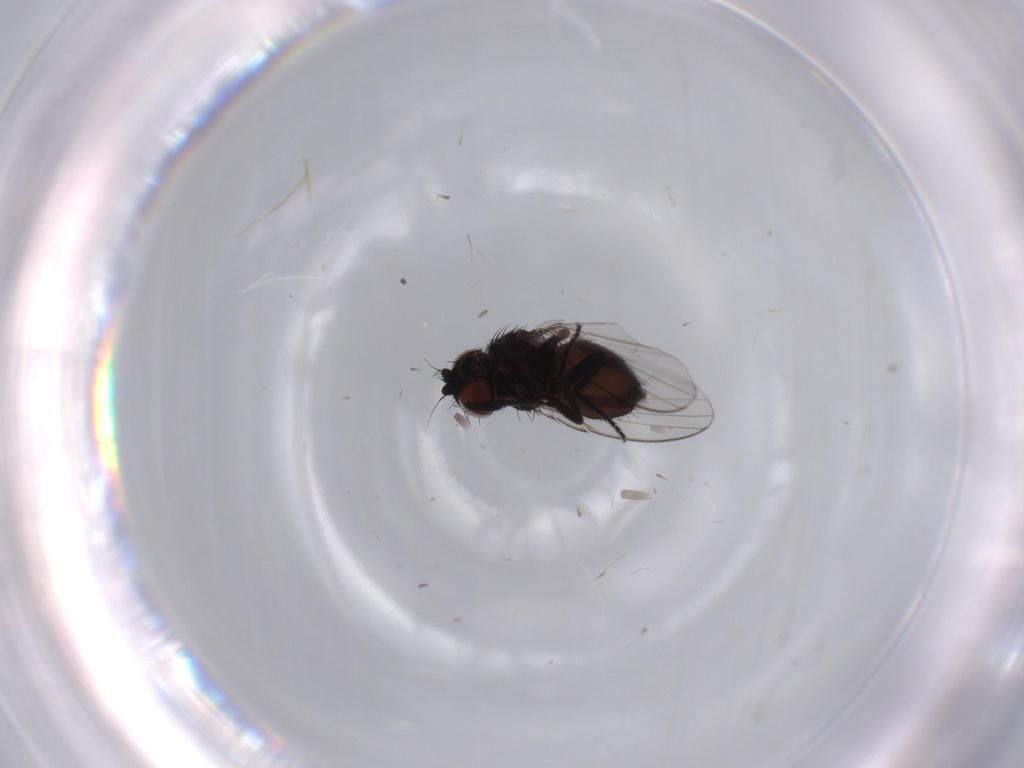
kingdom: Animalia
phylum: Arthropoda
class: Insecta
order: Diptera
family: Milichiidae
